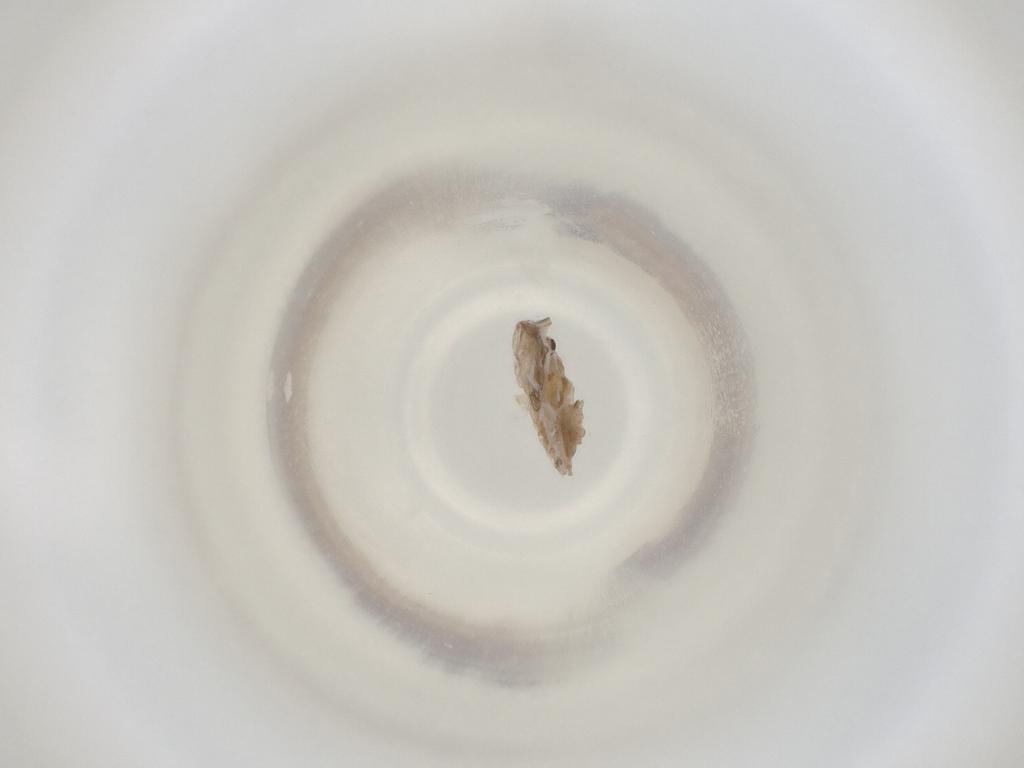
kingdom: Animalia
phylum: Arthropoda
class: Insecta
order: Diptera
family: Cecidomyiidae
